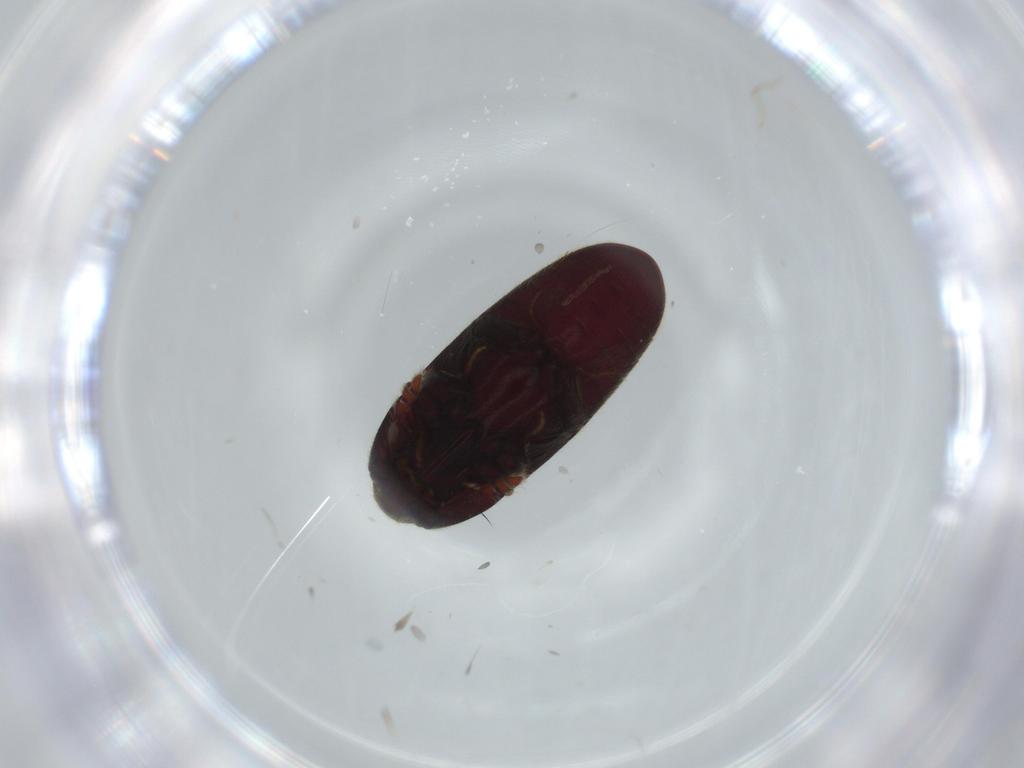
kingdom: Animalia
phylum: Arthropoda
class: Insecta
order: Coleoptera
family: Throscidae
